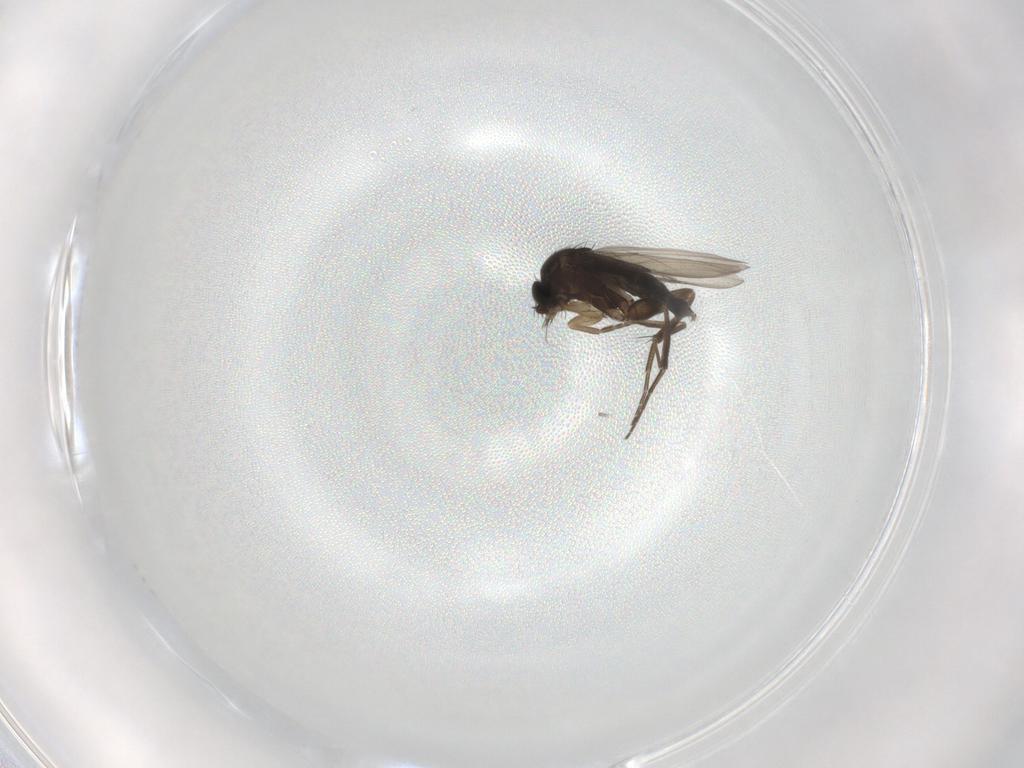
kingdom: Animalia
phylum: Arthropoda
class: Insecta
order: Diptera
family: Phoridae
